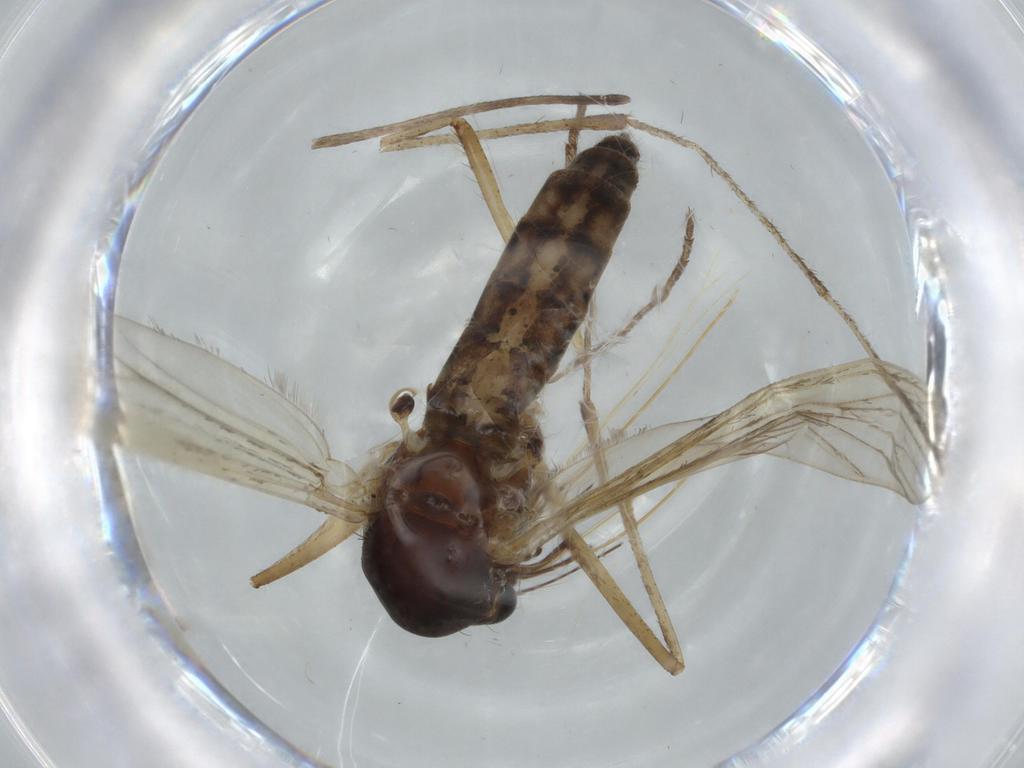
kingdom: Animalia
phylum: Arthropoda
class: Insecta
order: Diptera
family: Ceratopogonidae
